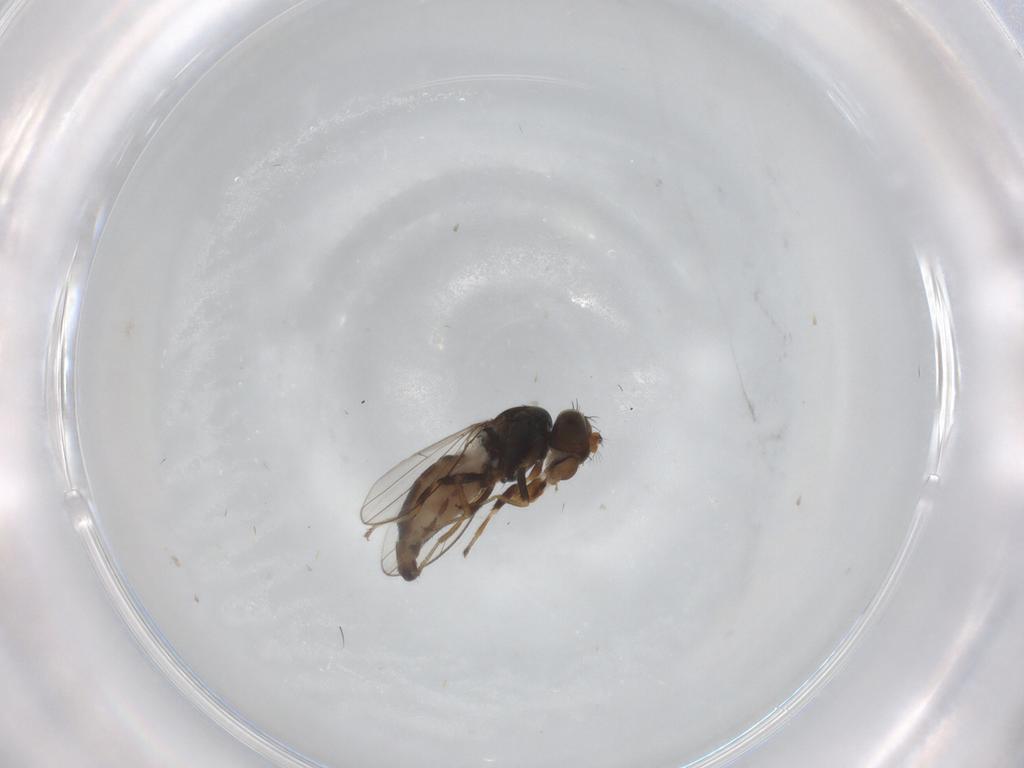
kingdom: Animalia
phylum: Arthropoda
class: Insecta
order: Diptera
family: Ephydridae
